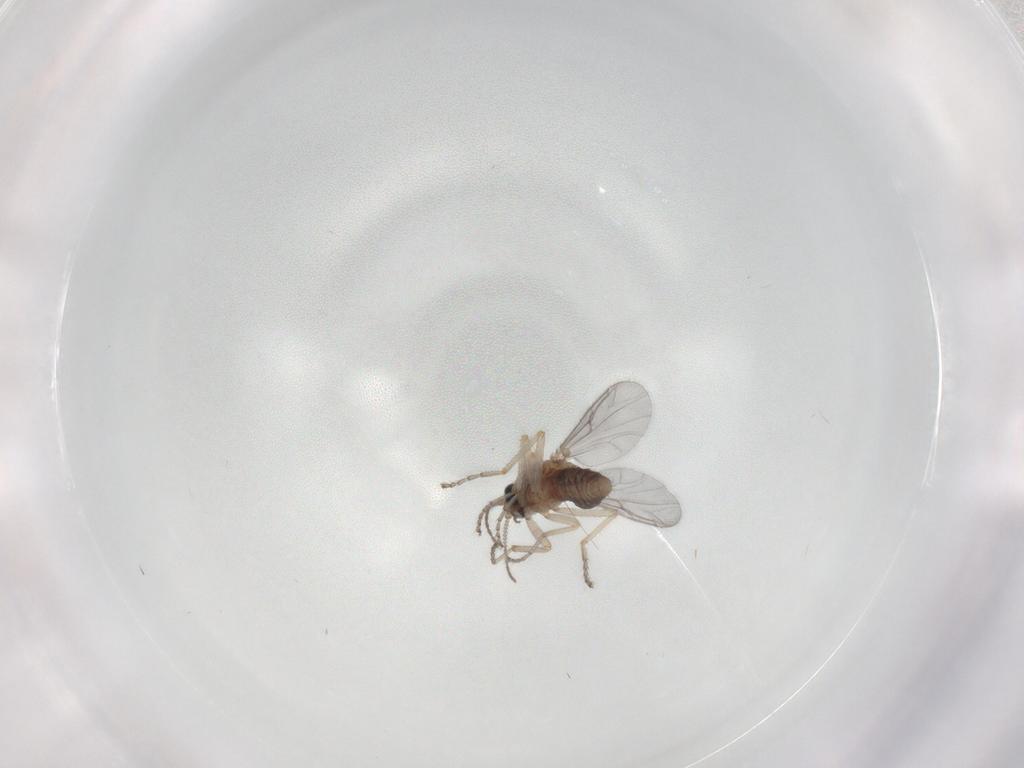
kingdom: Animalia
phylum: Arthropoda
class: Insecta
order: Diptera
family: Ceratopogonidae
